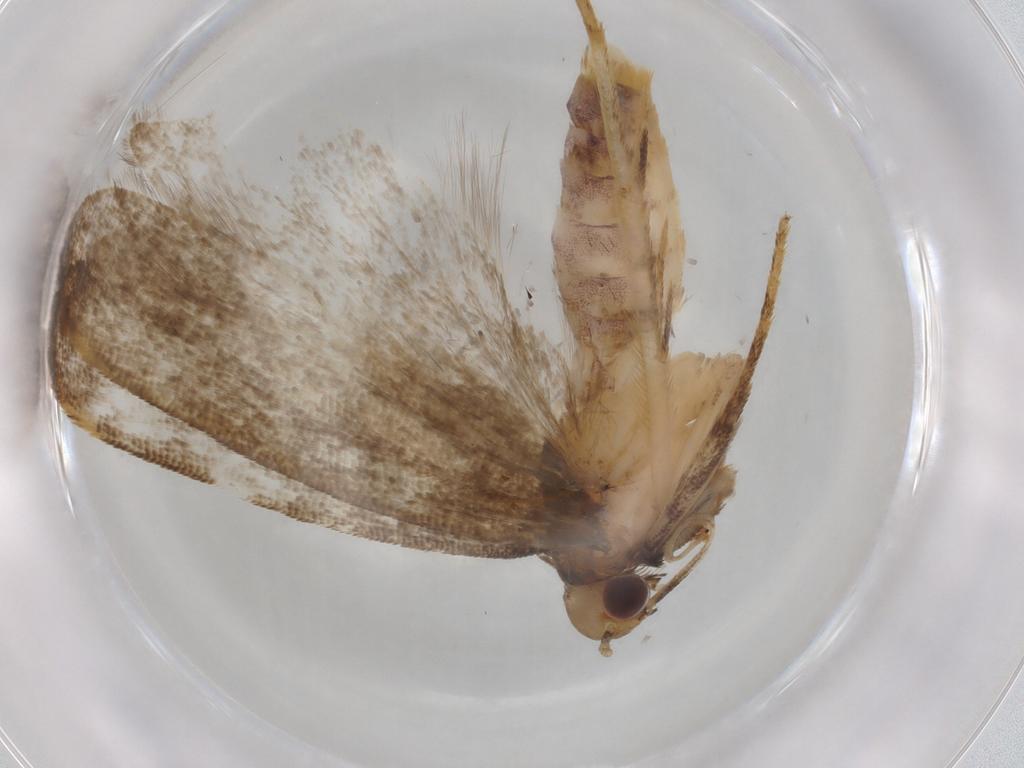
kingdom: Animalia
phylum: Arthropoda
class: Insecta
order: Lepidoptera
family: Gelechiidae
